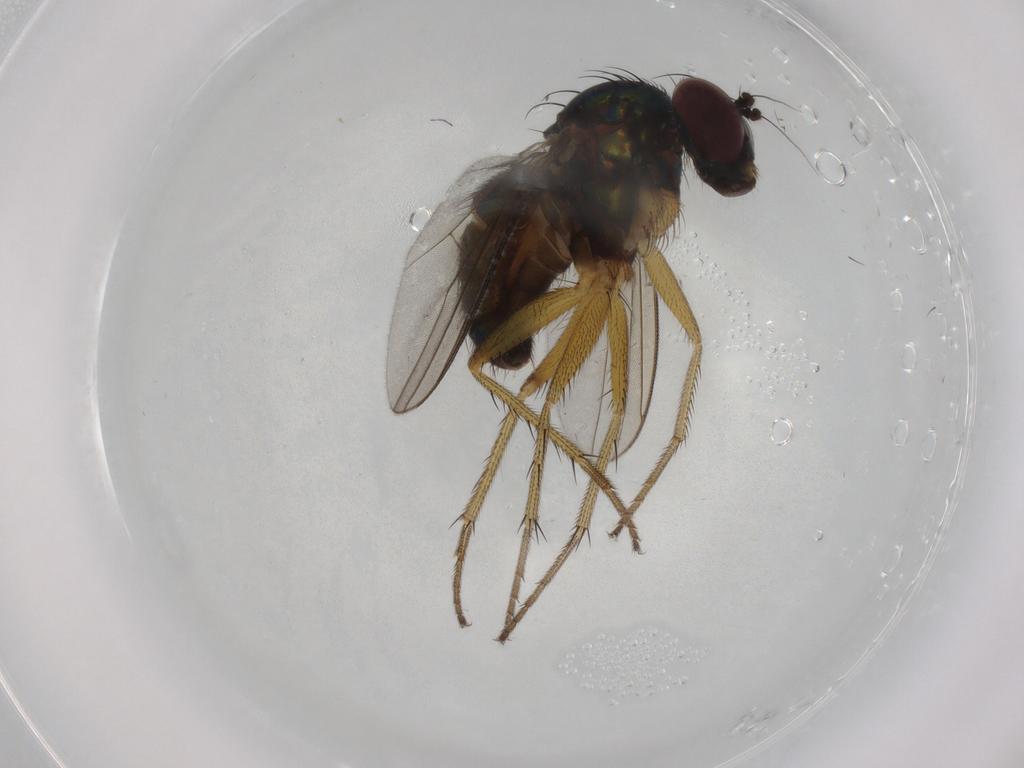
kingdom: Animalia
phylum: Arthropoda
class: Insecta
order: Diptera
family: Dolichopodidae
